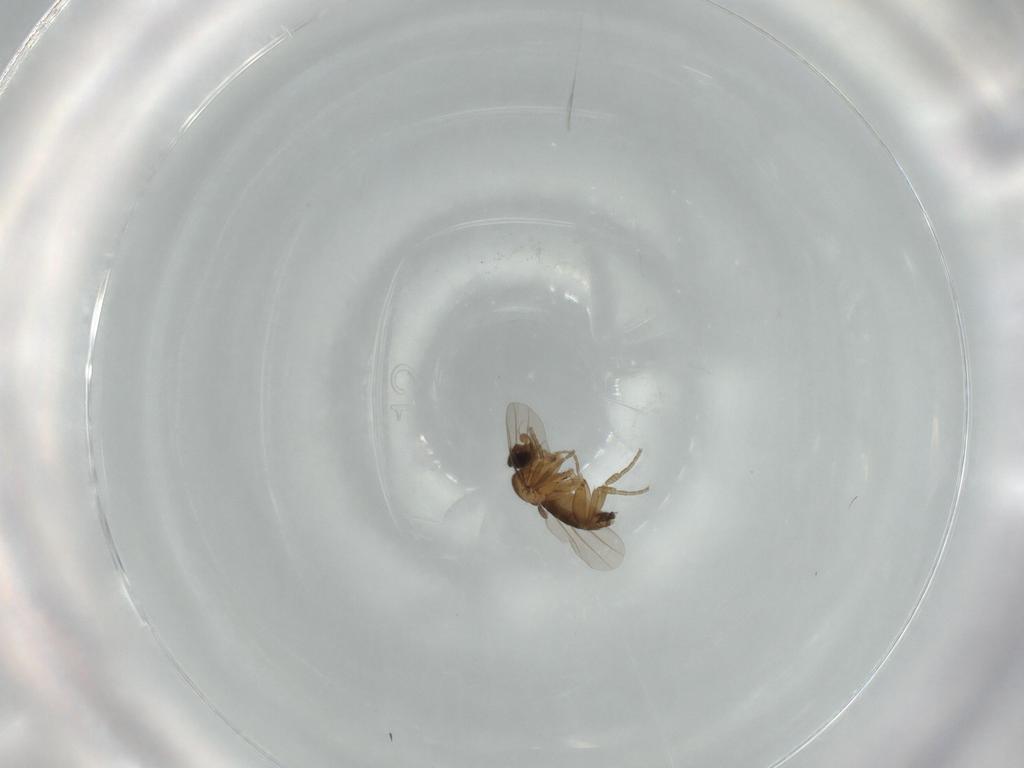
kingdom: Animalia
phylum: Arthropoda
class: Insecta
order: Diptera
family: Phoridae
